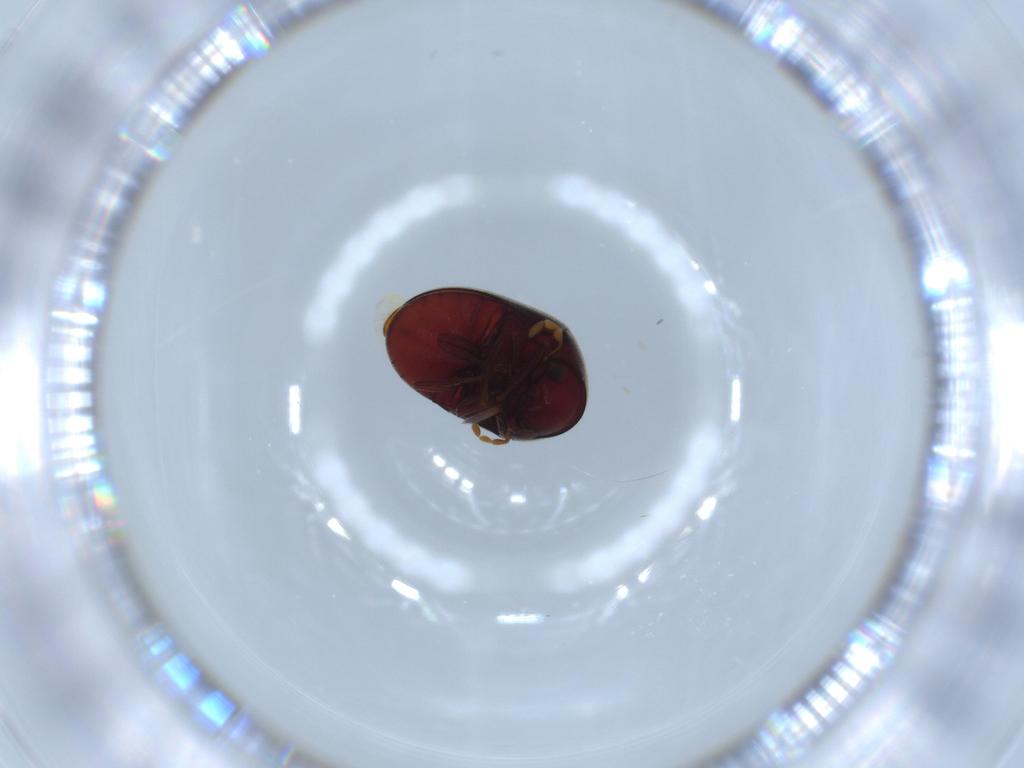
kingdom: Animalia
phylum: Arthropoda
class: Insecta
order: Coleoptera
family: Ptinidae
